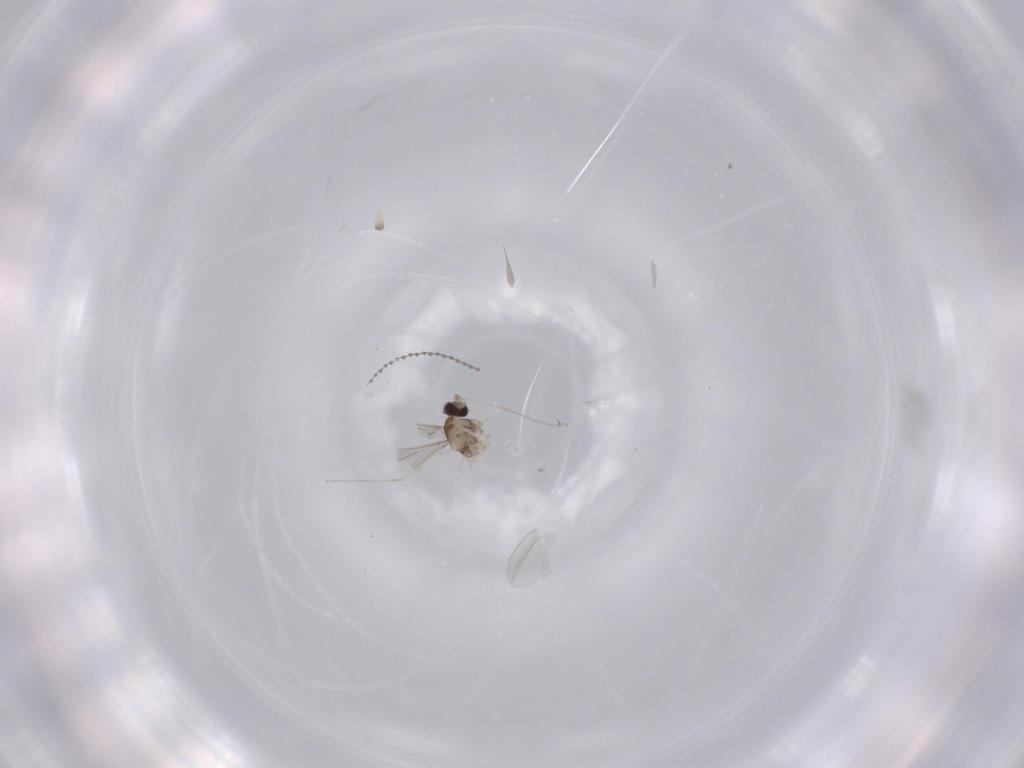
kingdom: Animalia
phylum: Arthropoda
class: Insecta
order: Diptera
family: Cecidomyiidae
